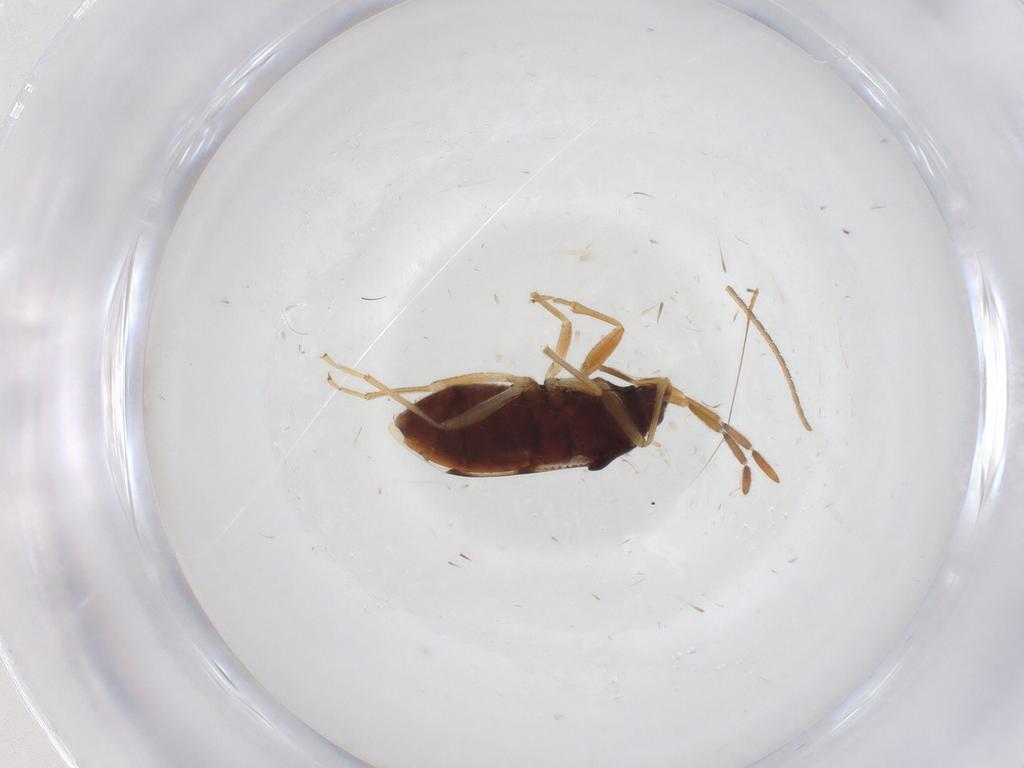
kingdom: Animalia
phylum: Arthropoda
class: Insecta
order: Hemiptera
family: Rhyparochromidae
